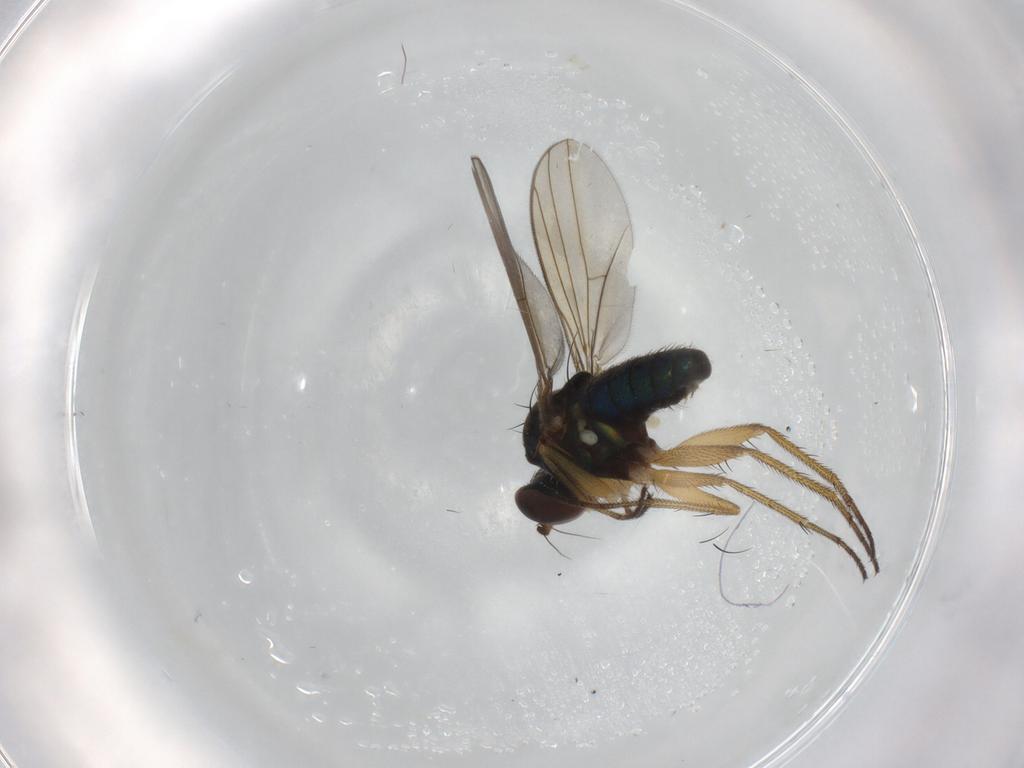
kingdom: Animalia
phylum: Arthropoda
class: Insecta
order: Diptera
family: Dolichopodidae
